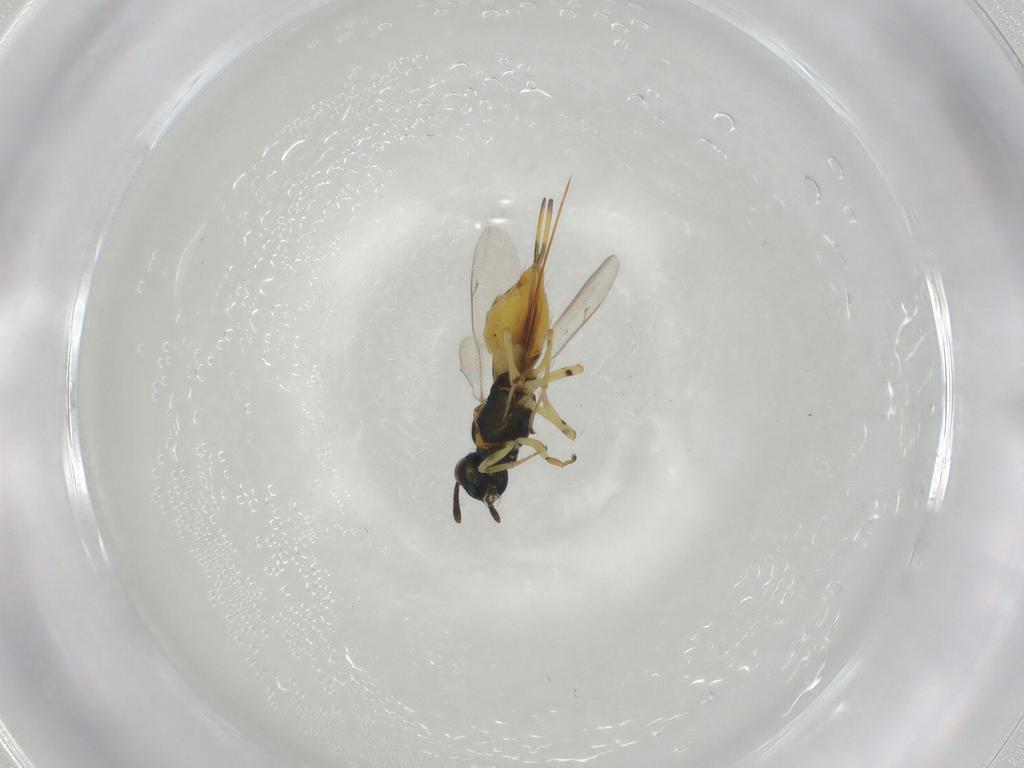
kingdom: Animalia
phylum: Arthropoda
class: Insecta
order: Hymenoptera
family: Eupelmidae
